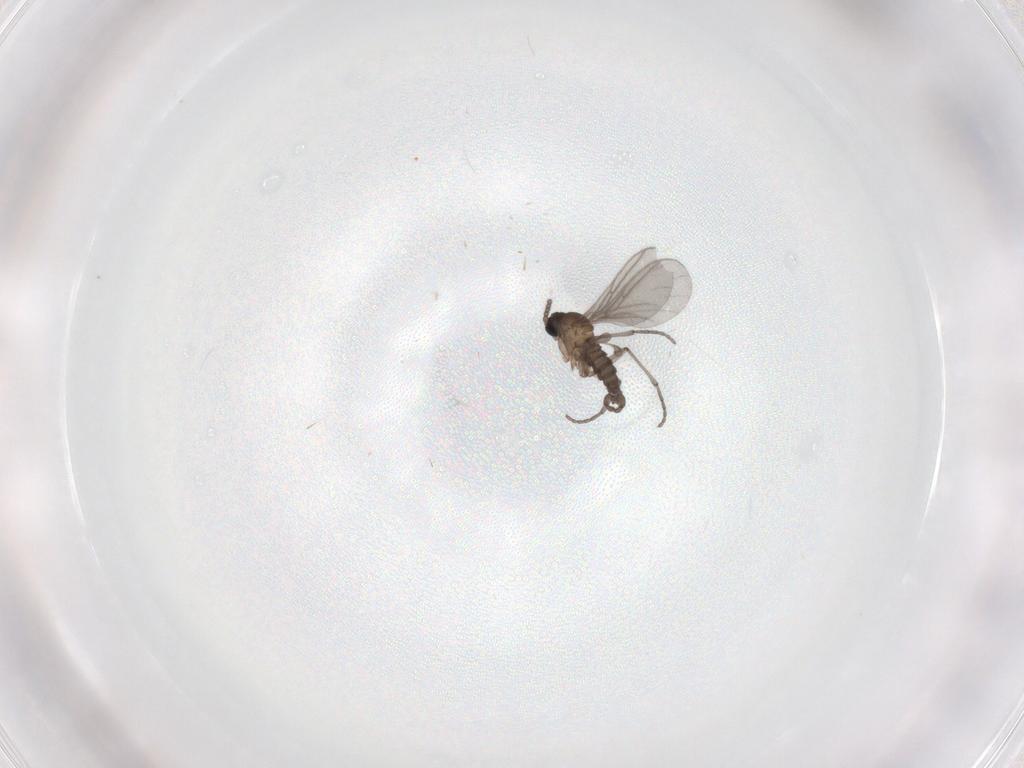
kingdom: Animalia
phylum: Arthropoda
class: Insecta
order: Diptera
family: Sciaridae
